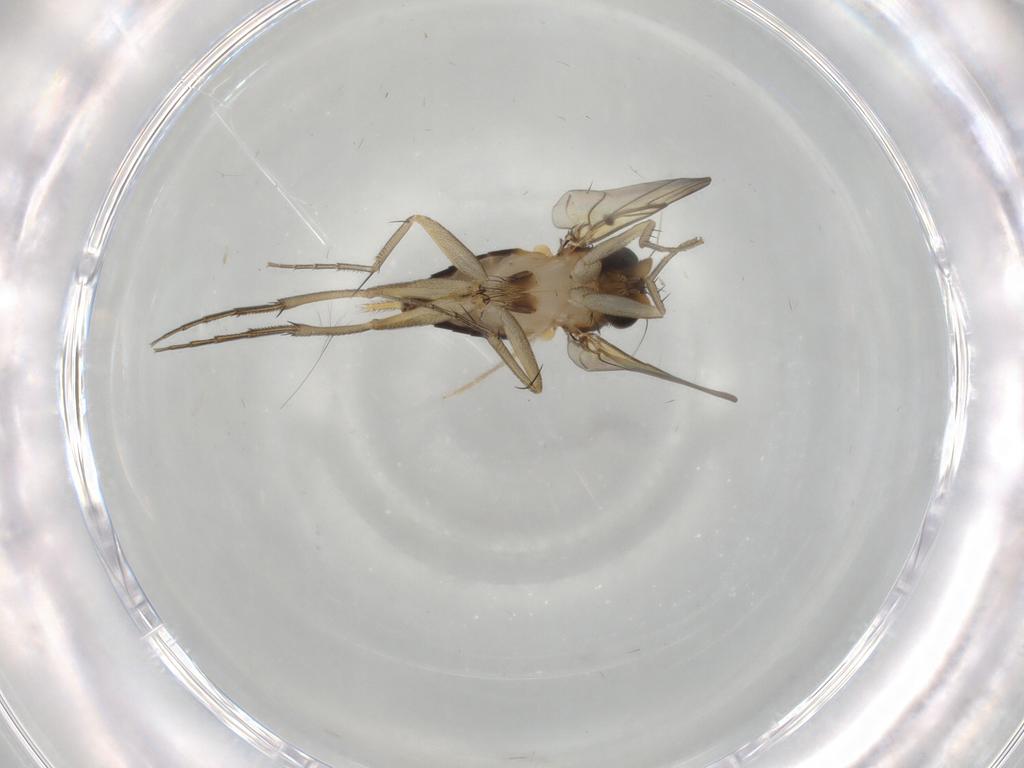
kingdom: Animalia
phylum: Arthropoda
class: Insecta
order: Diptera
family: Phoridae
